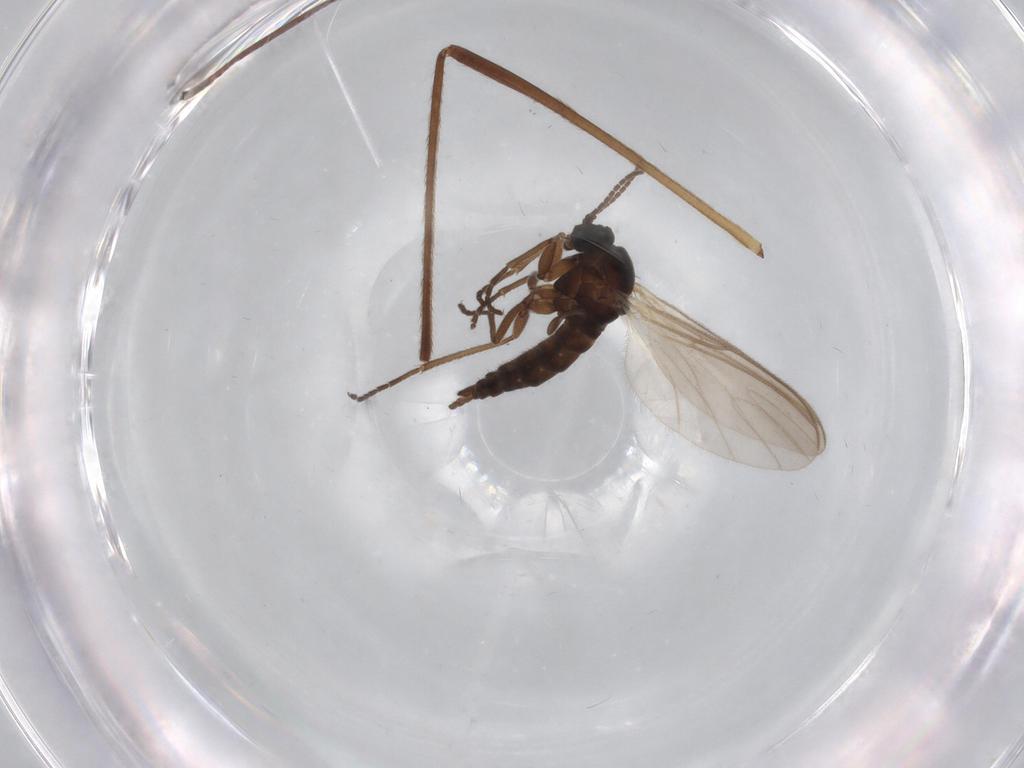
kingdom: Animalia
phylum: Arthropoda
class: Insecta
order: Diptera
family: Sciaridae
